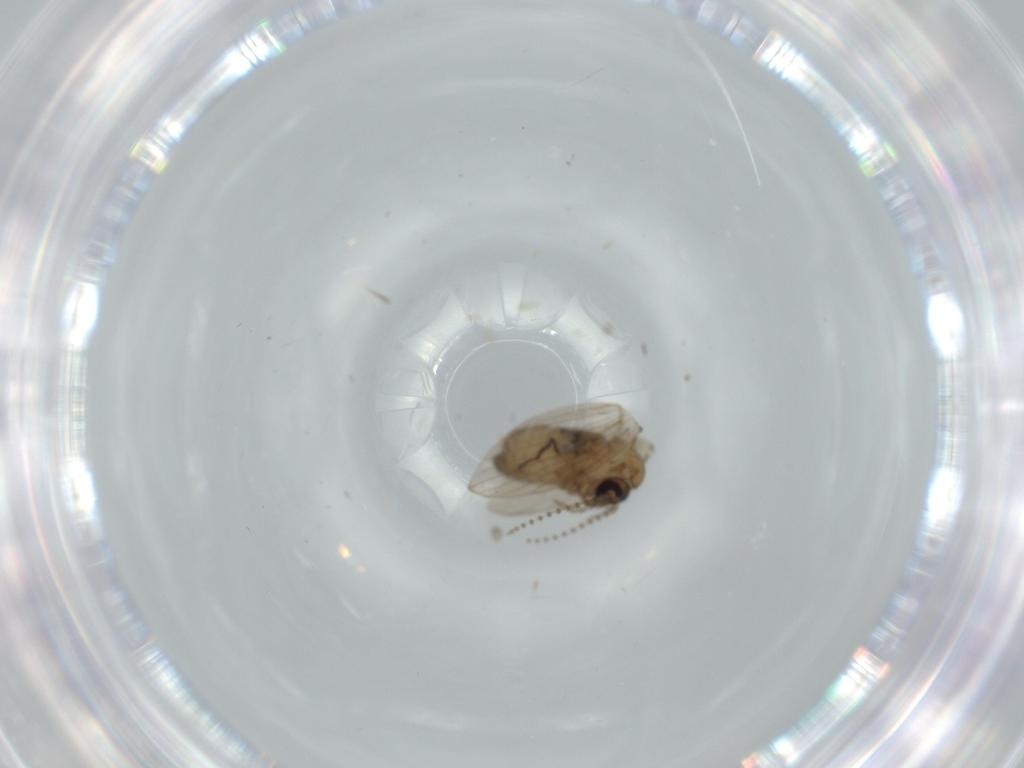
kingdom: Animalia
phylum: Arthropoda
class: Insecta
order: Diptera
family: Psychodidae
